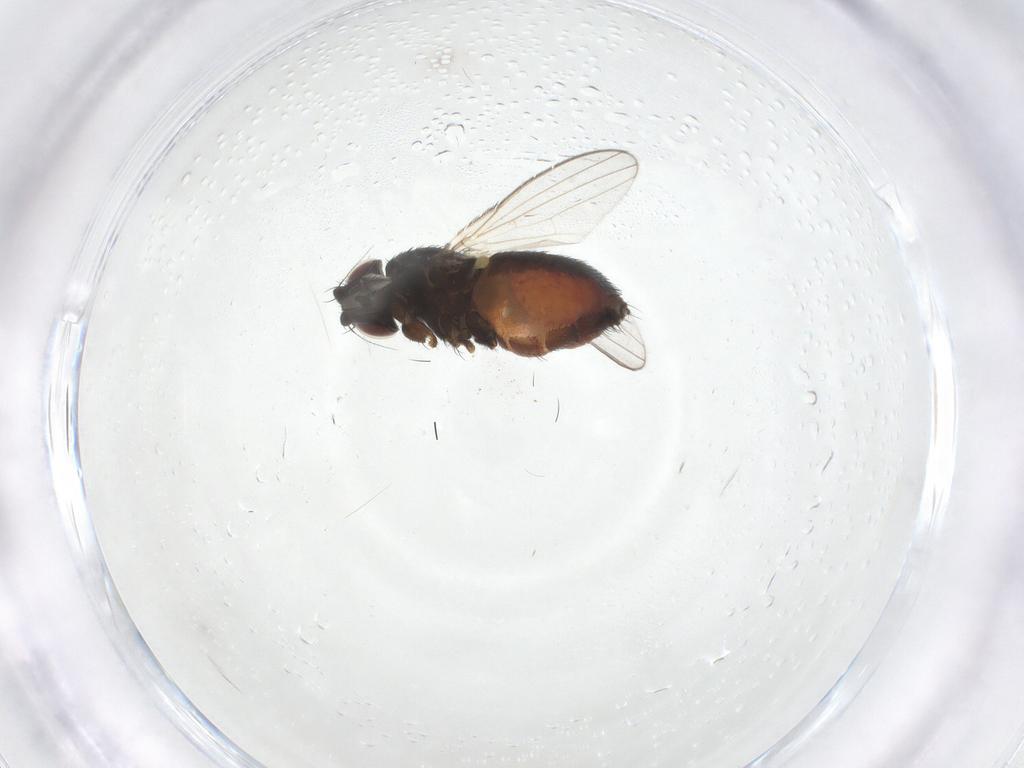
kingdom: Animalia
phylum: Arthropoda
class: Insecta
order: Diptera
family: Milichiidae
